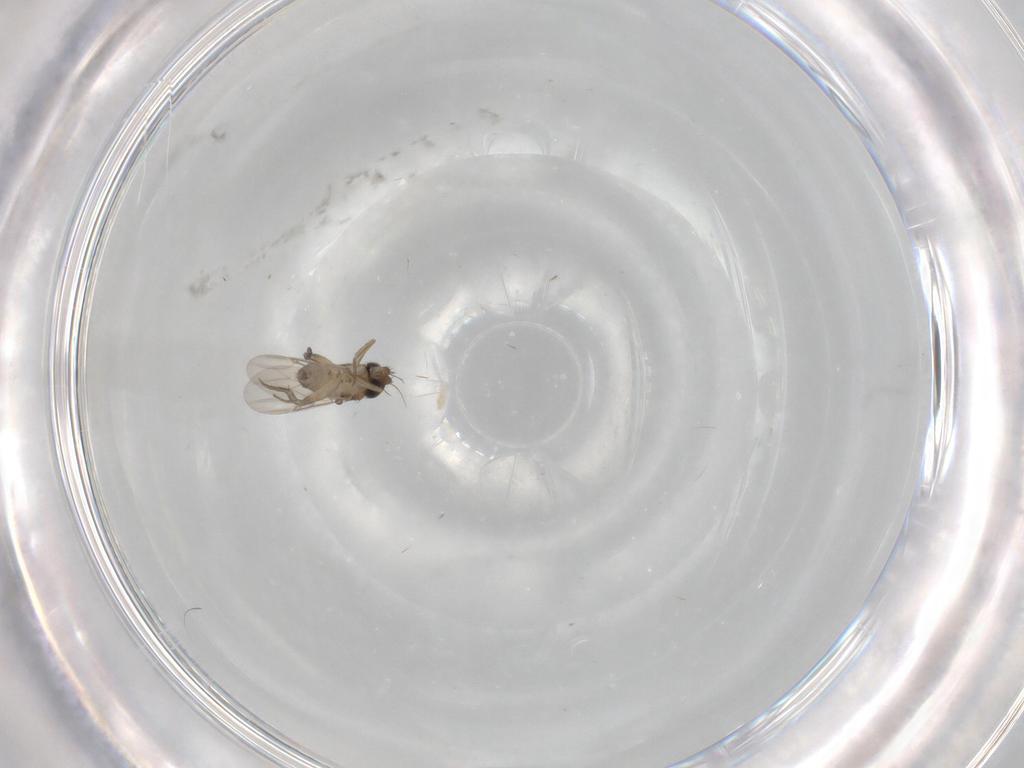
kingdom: Animalia
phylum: Arthropoda
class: Insecta
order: Diptera
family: Phoridae
